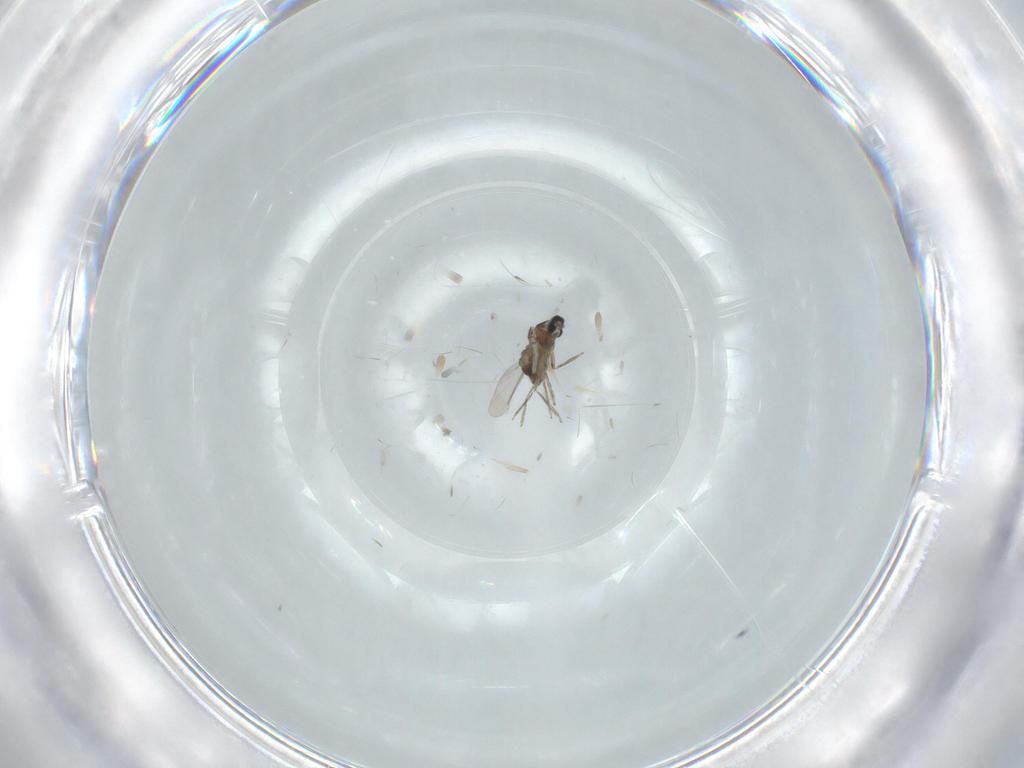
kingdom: Animalia
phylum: Arthropoda
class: Insecta
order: Diptera
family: Cecidomyiidae
